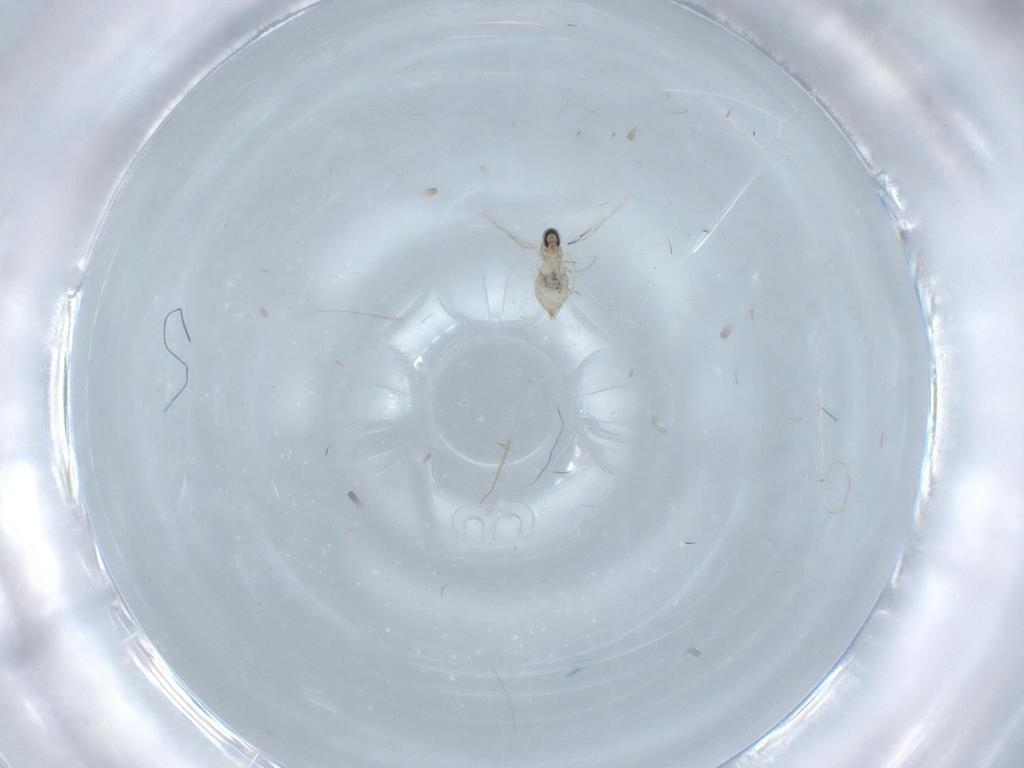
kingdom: Animalia
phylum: Arthropoda
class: Insecta
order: Diptera
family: Cecidomyiidae
